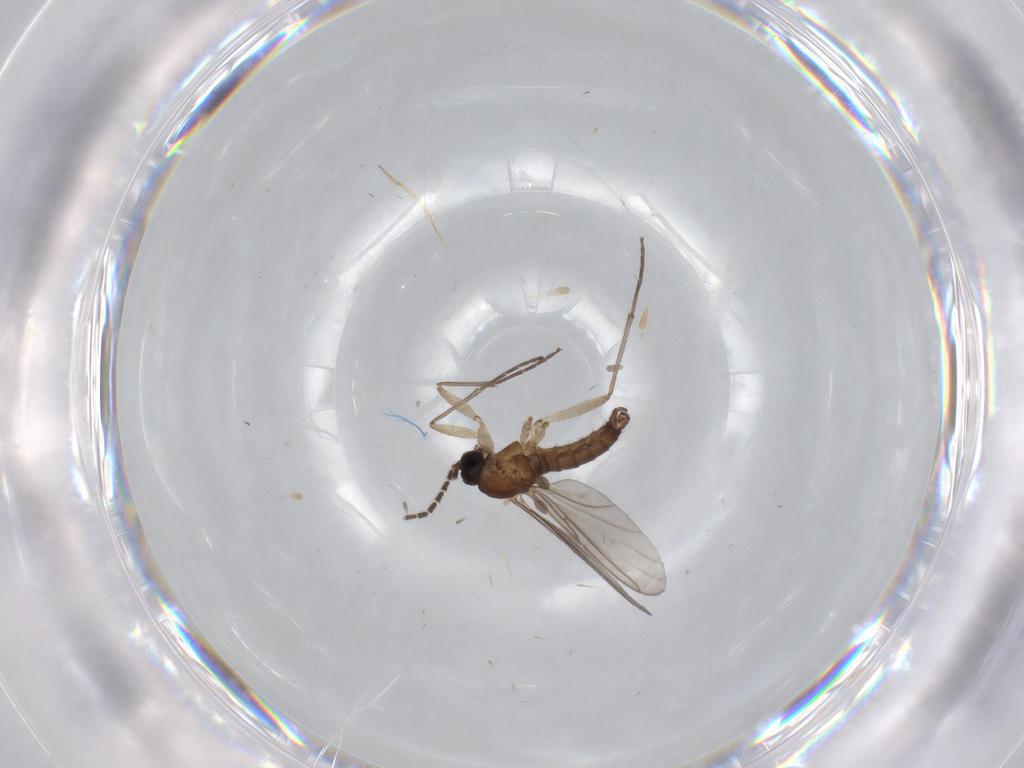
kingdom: Animalia
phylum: Arthropoda
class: Insecta
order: Diptera
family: Sciaridae
